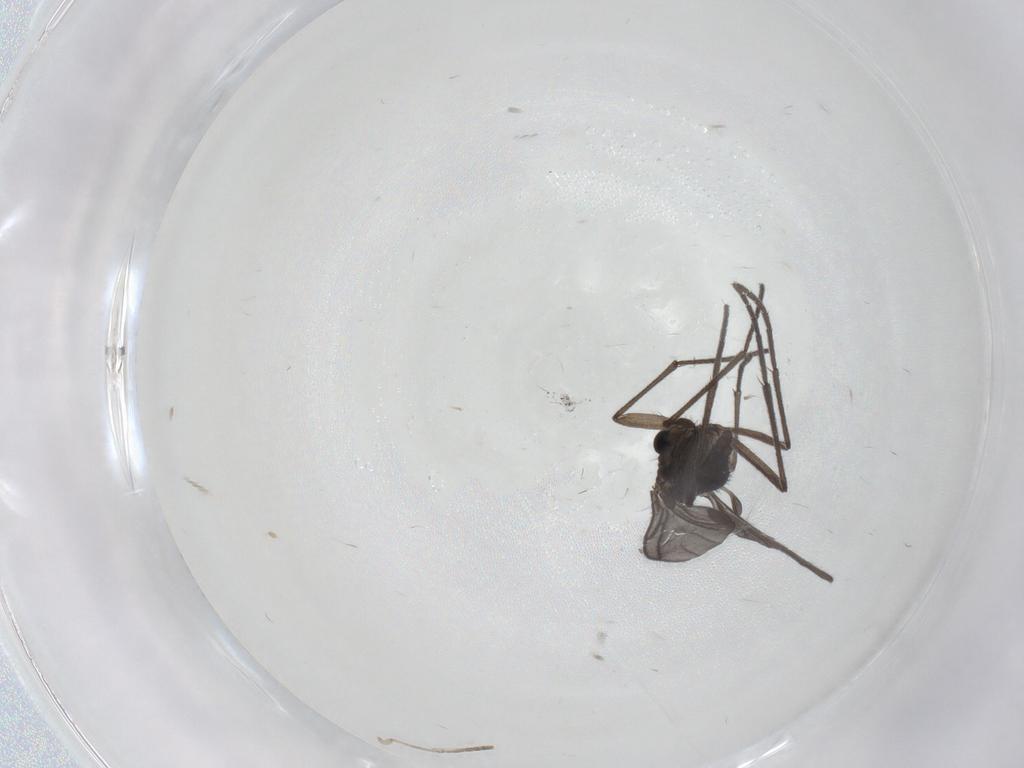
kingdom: Animalia
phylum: Arthropoda
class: Insecta
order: Diptera
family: Sciaridae
